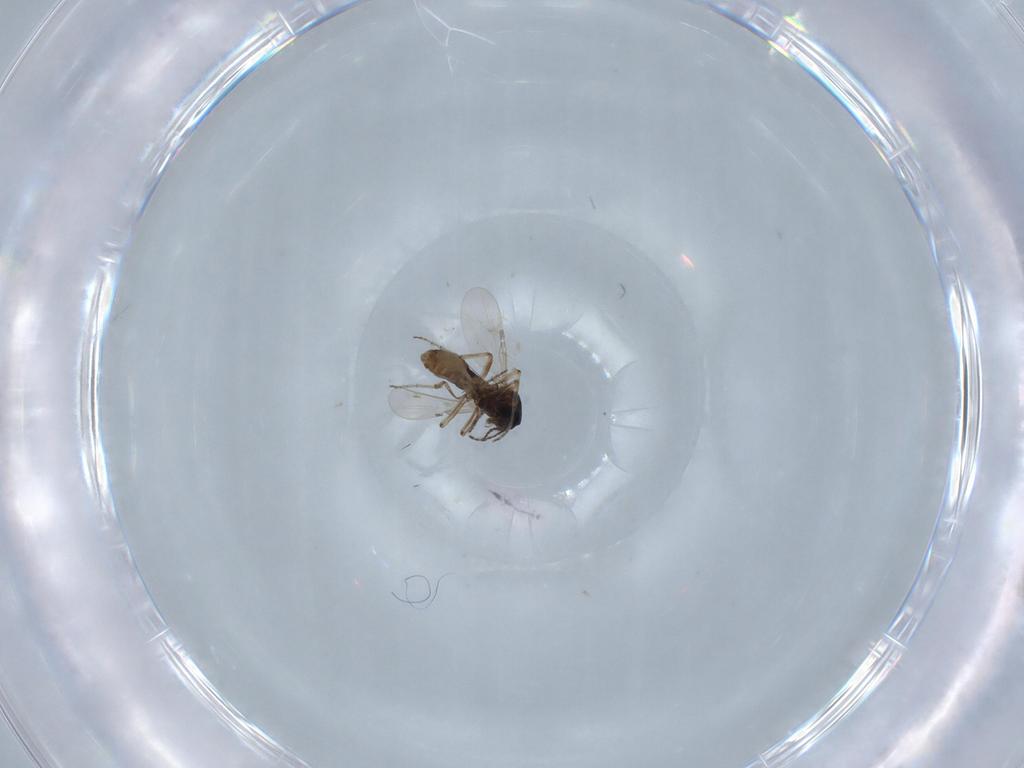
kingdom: Animalia
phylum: Arthropoda
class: Insecta
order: Diptera
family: Ceratopogonidae
